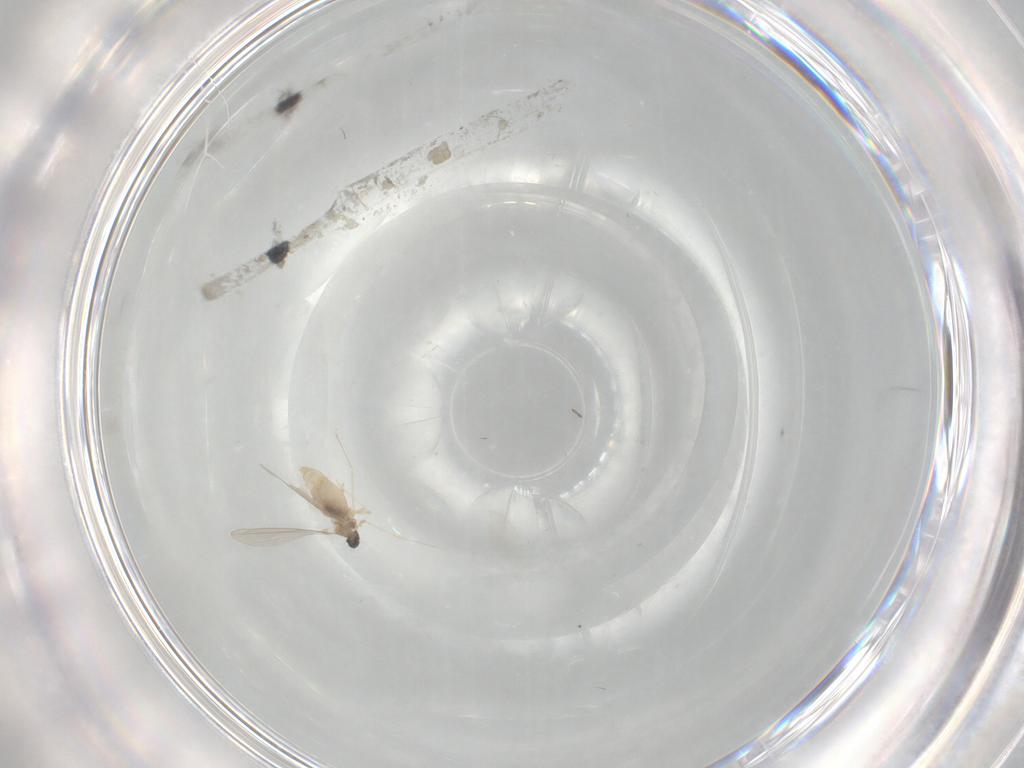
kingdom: Animalia
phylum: Arthropoda
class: Insecta
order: Diptera
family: Cecidomyiidae
